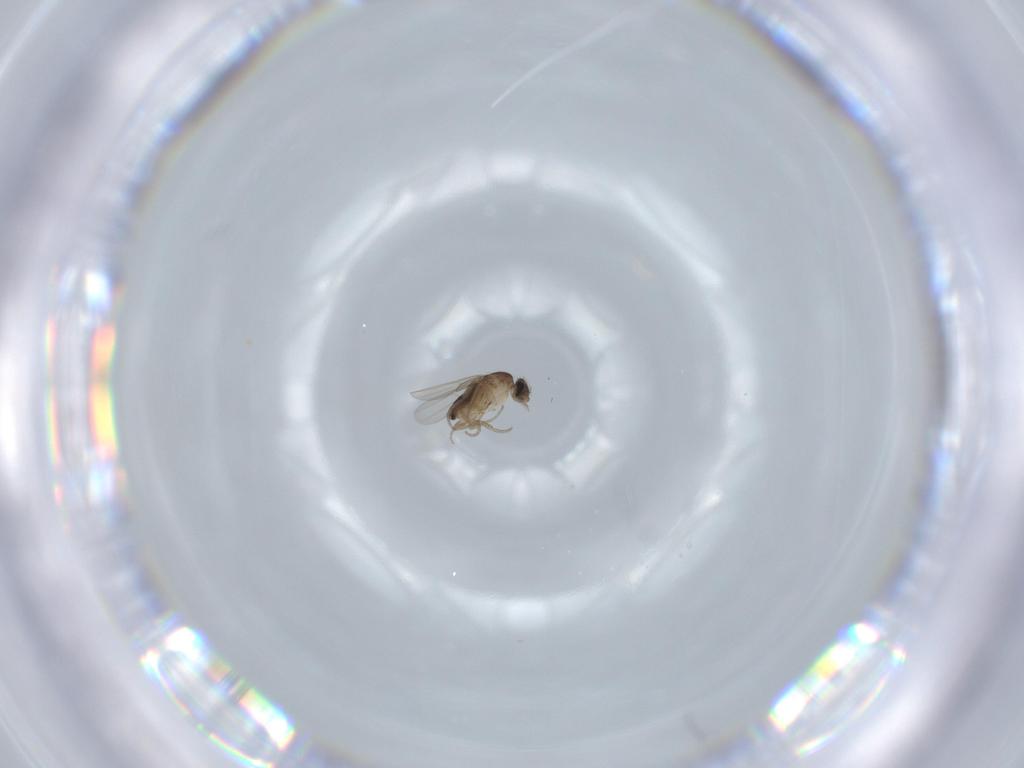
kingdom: Animalia
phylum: Arthropoda
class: Insecta
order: Diptera
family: Phoridae
